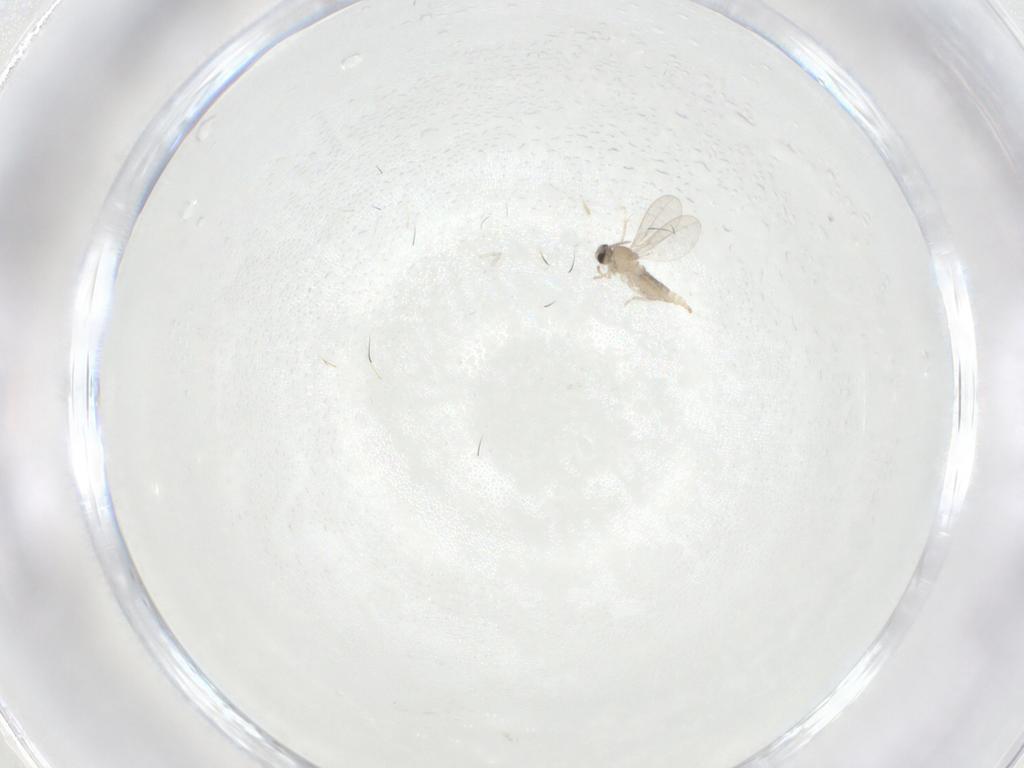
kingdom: Animalia
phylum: Arthropoda
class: Insecta
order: Diptera
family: Cecidomyiidae
